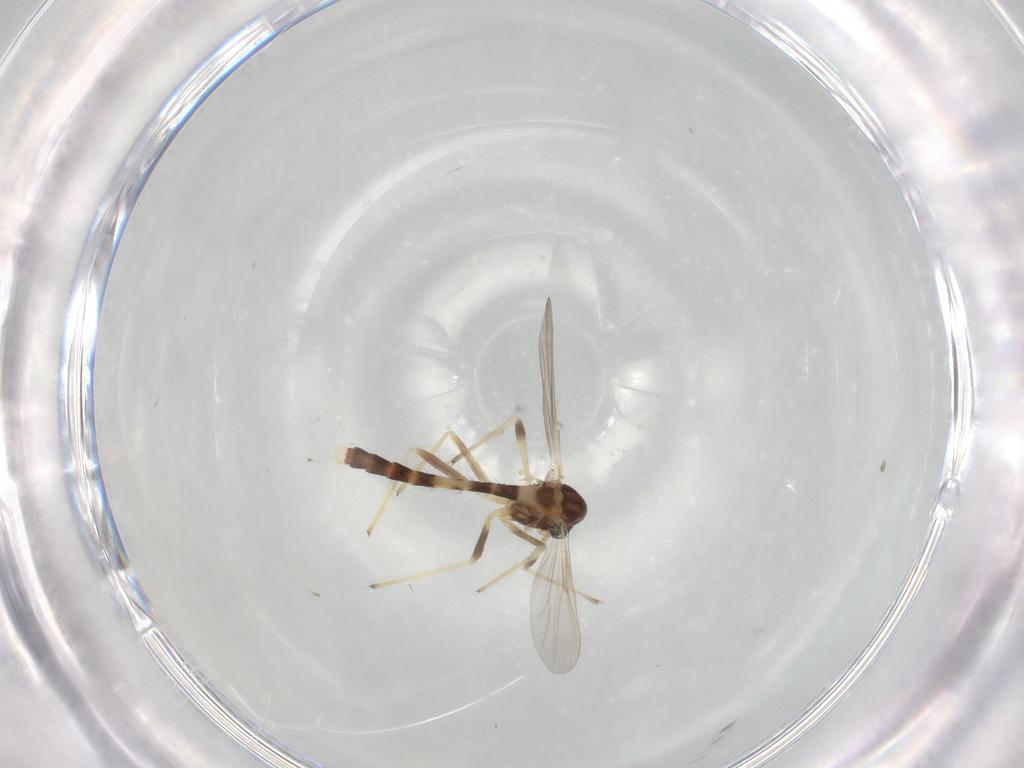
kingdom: Animalia
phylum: Arthropoda
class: Insecta
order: Diptera
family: Chironomidae
